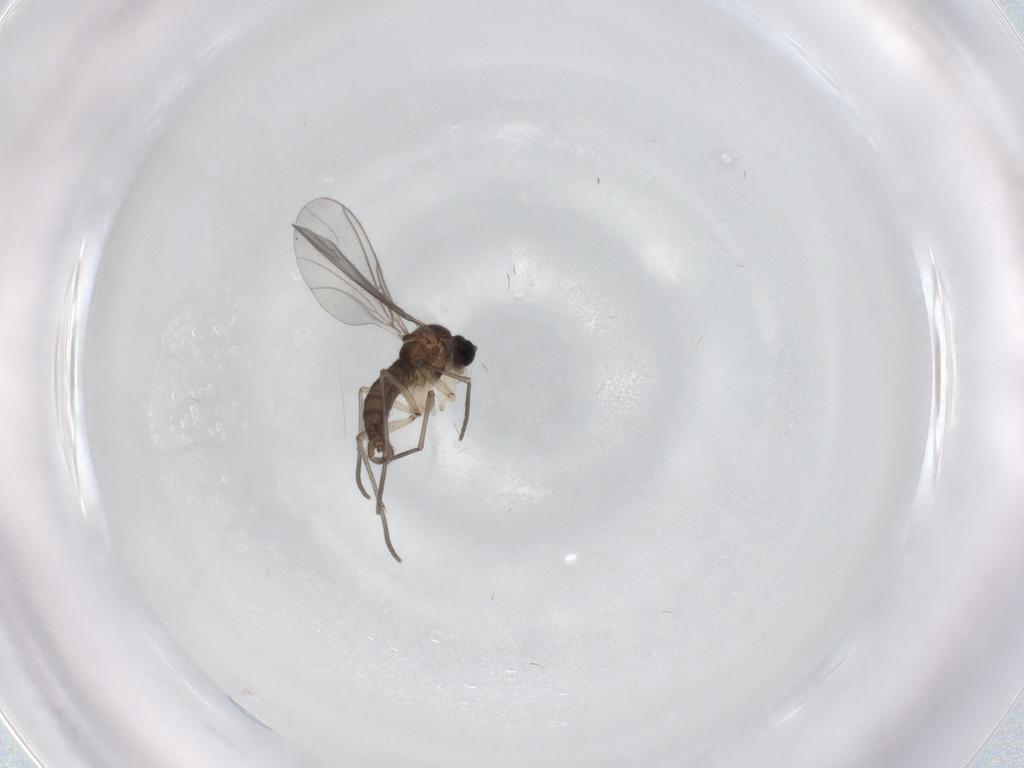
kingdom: Animalia
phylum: Arthropoda
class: Insecta
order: Diptera
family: Sciaridae
